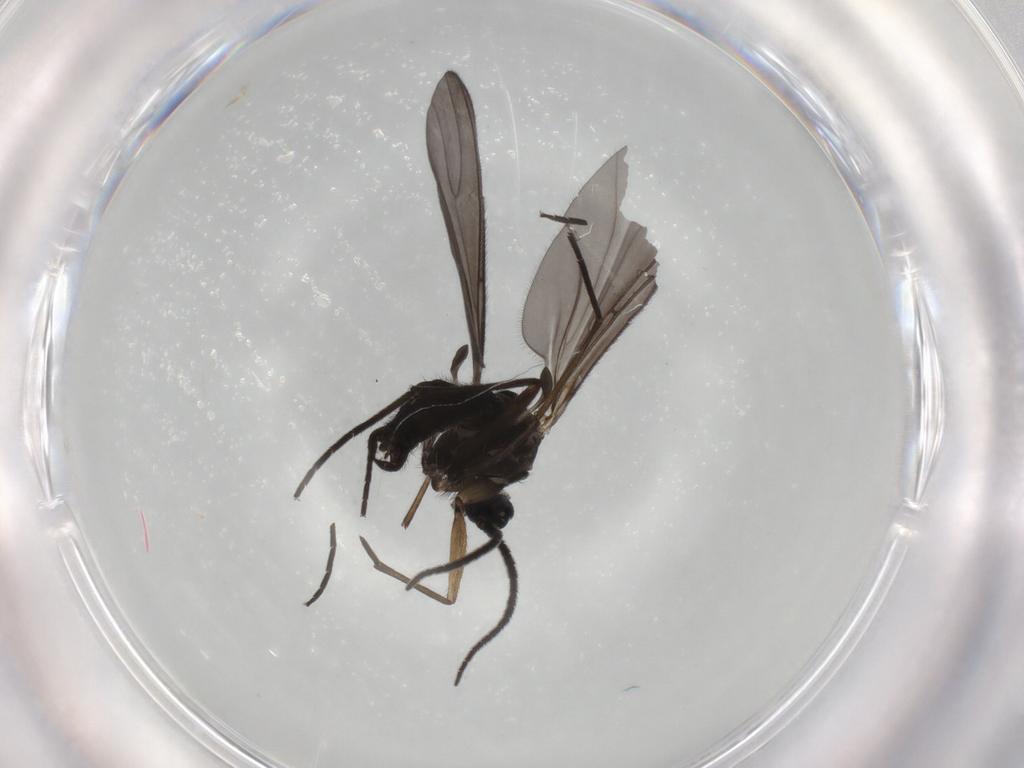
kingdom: Animalia
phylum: Arthropoda
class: Insecta
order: Diptera
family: Sciaridae
